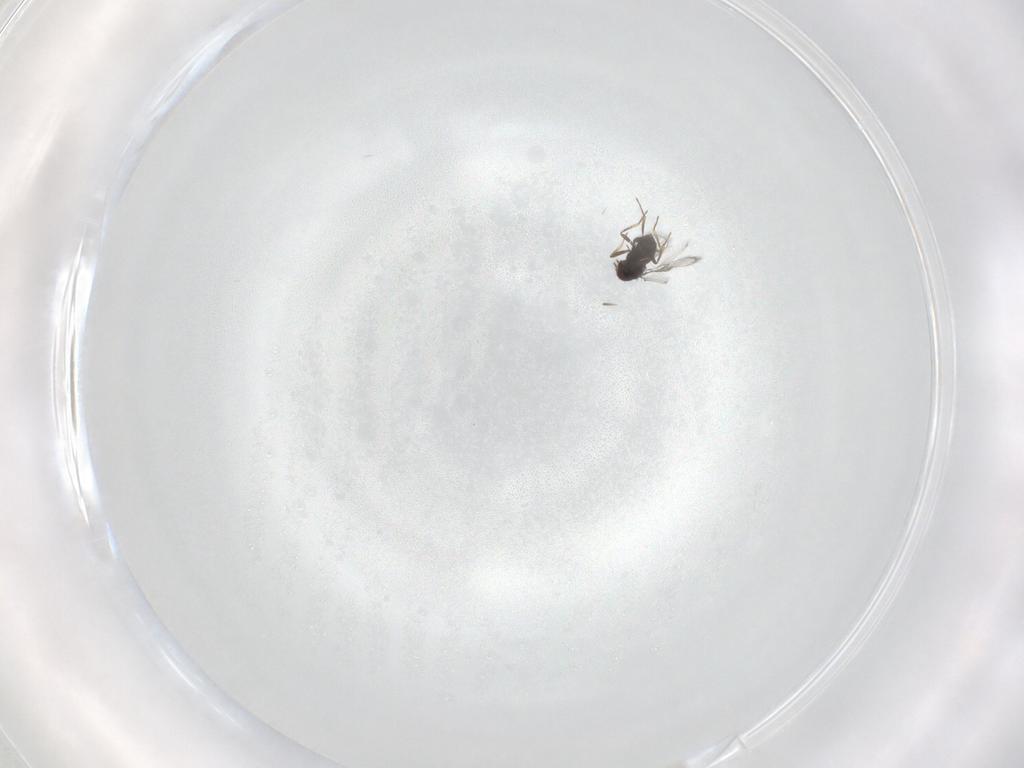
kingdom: Animalia
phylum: Arthropoda
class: Insecta
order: Hymenoptera
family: Trichogrammatidae
